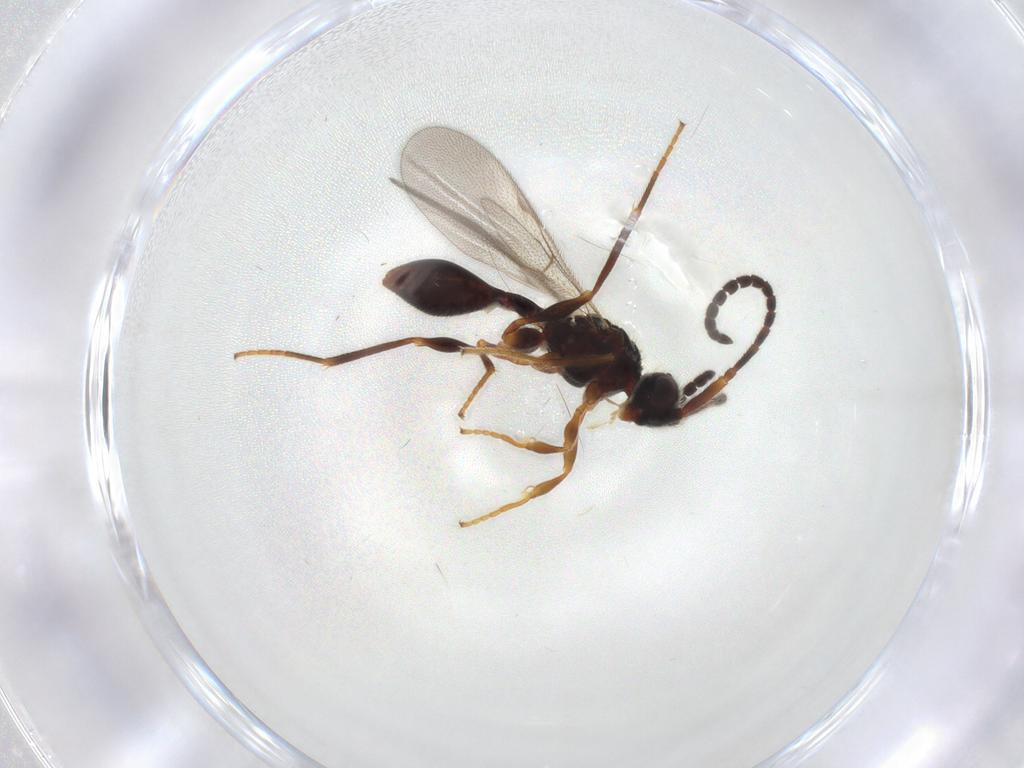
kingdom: Animalia
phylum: Arthropoda
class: Insecta
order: Hymenoptera
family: Diapriidae
